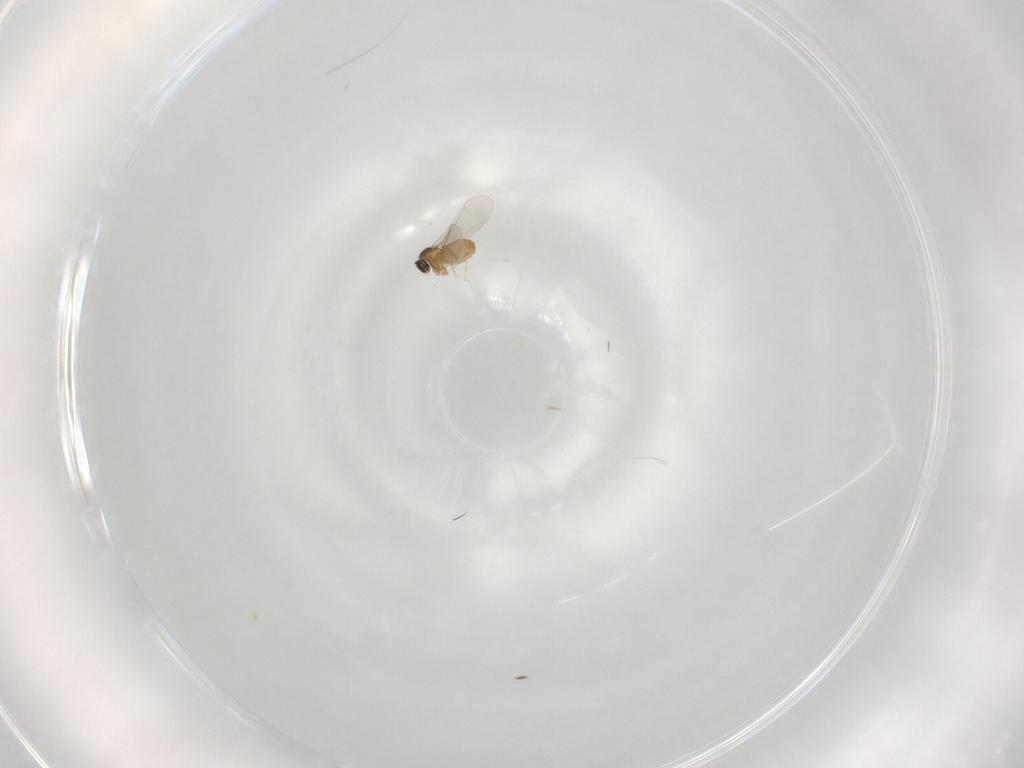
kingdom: Animalia
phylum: Arthropoda
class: Insecta
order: Diptera
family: Cecidomyiidae
